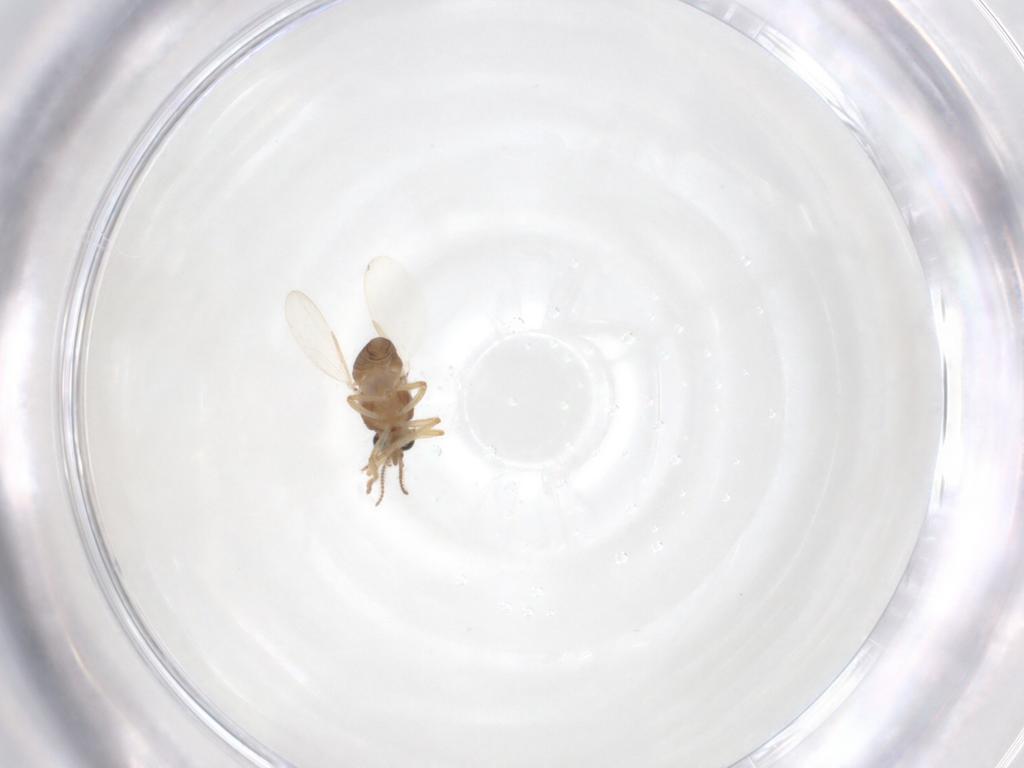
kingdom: Animalia
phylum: Arthropoda
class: Insecta
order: Diptera
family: Ceratopogonidae
